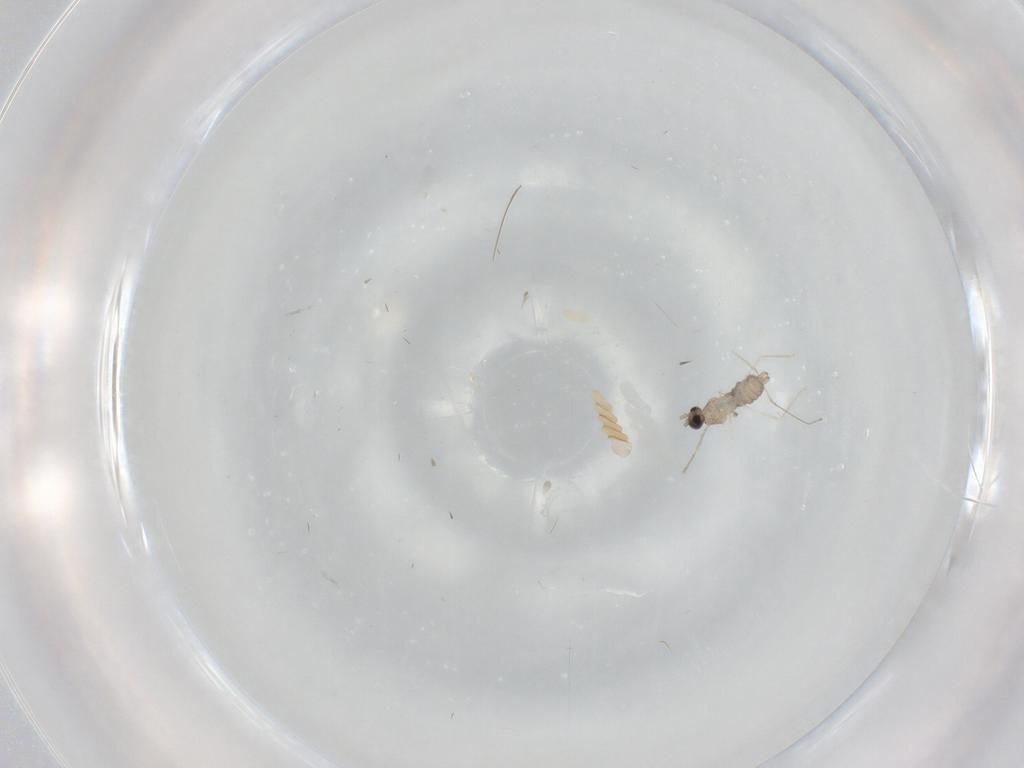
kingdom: Animalia
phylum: Arthropoda
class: Insecta
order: Diptera
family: Cecidomyiidae
